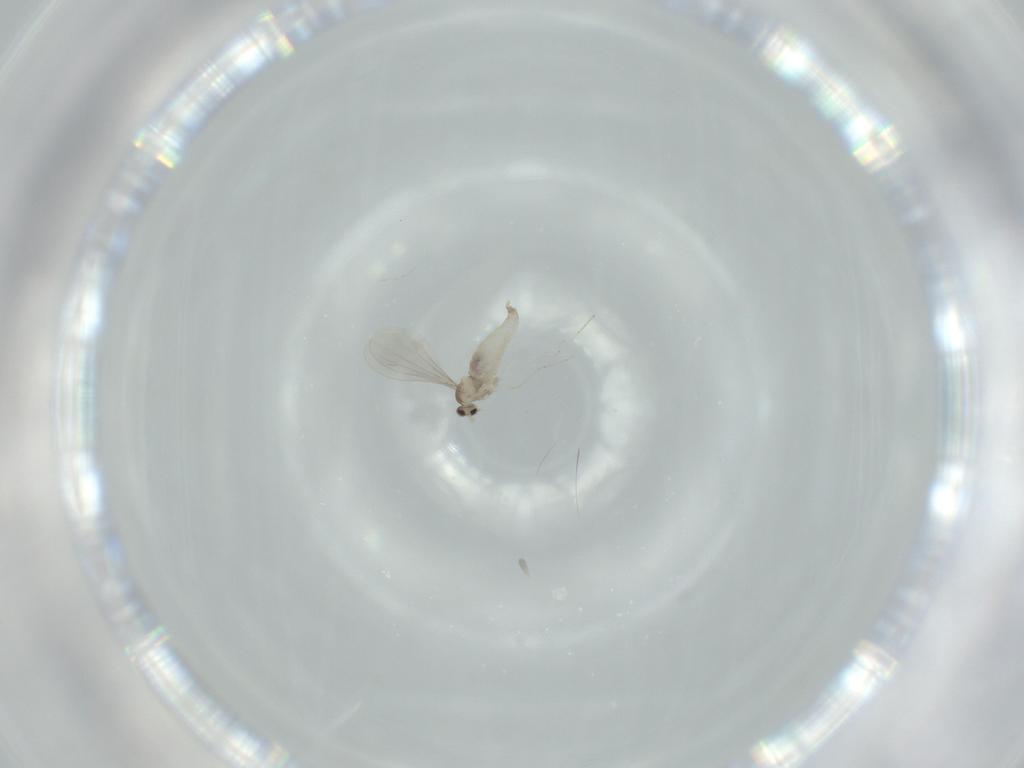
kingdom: Animalia
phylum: Arthropoda
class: Insecta
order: Diptera
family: Cecidomyiidae
